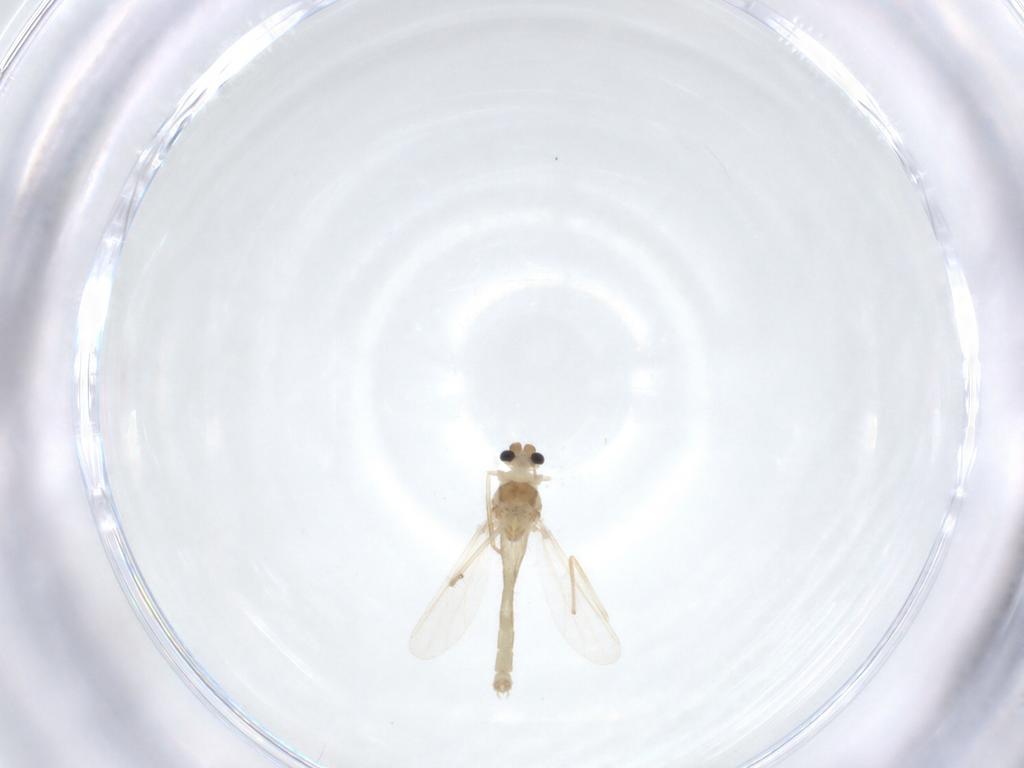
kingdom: Animalia
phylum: Arthropoda
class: Insecta
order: Diptera
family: Chironomidae
